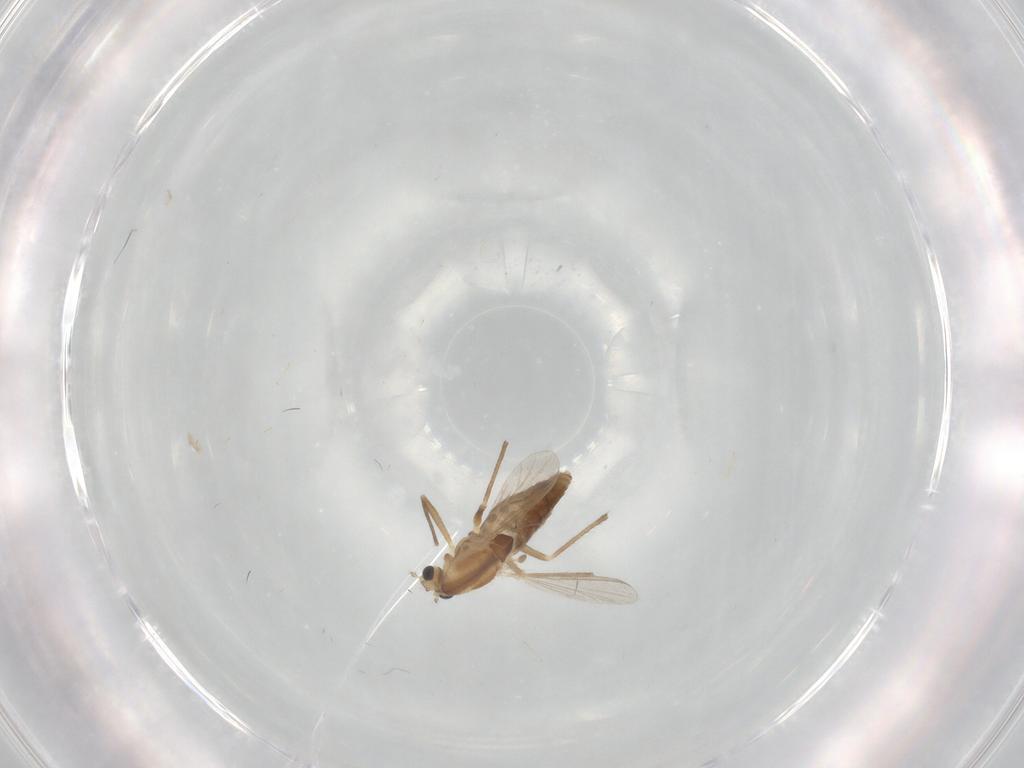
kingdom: Animalia
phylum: Arthropoda
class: Insecta
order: Diptera
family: Chironomidae
